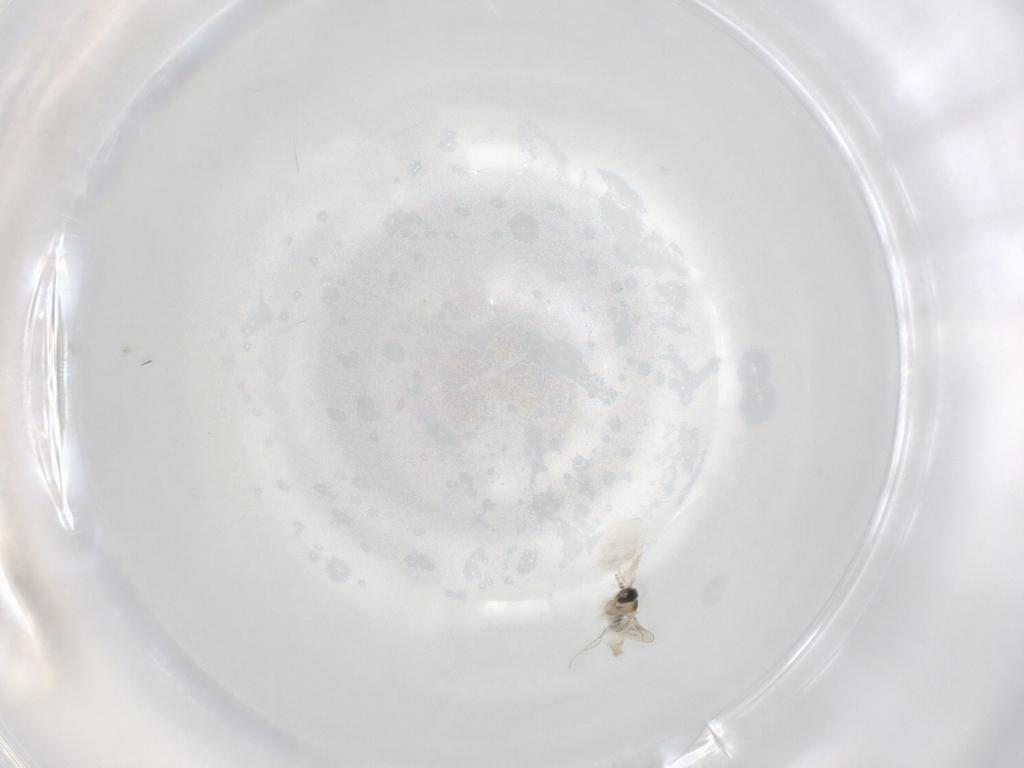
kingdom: Animalia
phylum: Arthropoda
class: Insecta
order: Diptera
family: Cecidomyiidae
